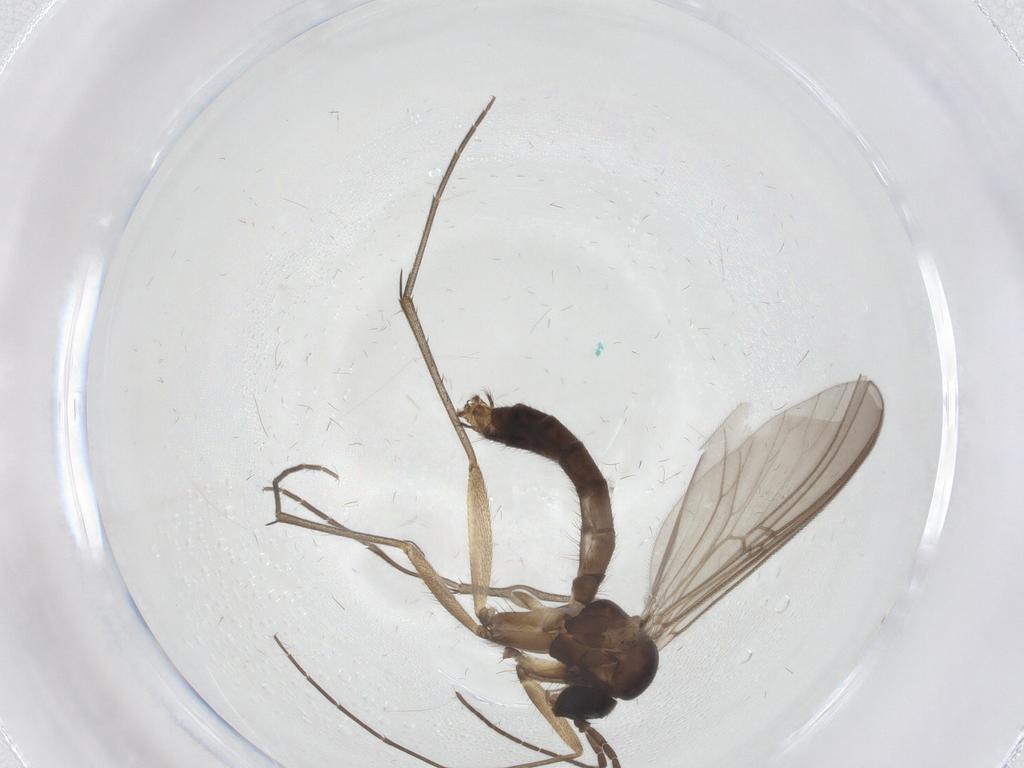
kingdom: Animalia
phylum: Arthropoda
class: Insecta
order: Diptera
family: Mycetophilidae
